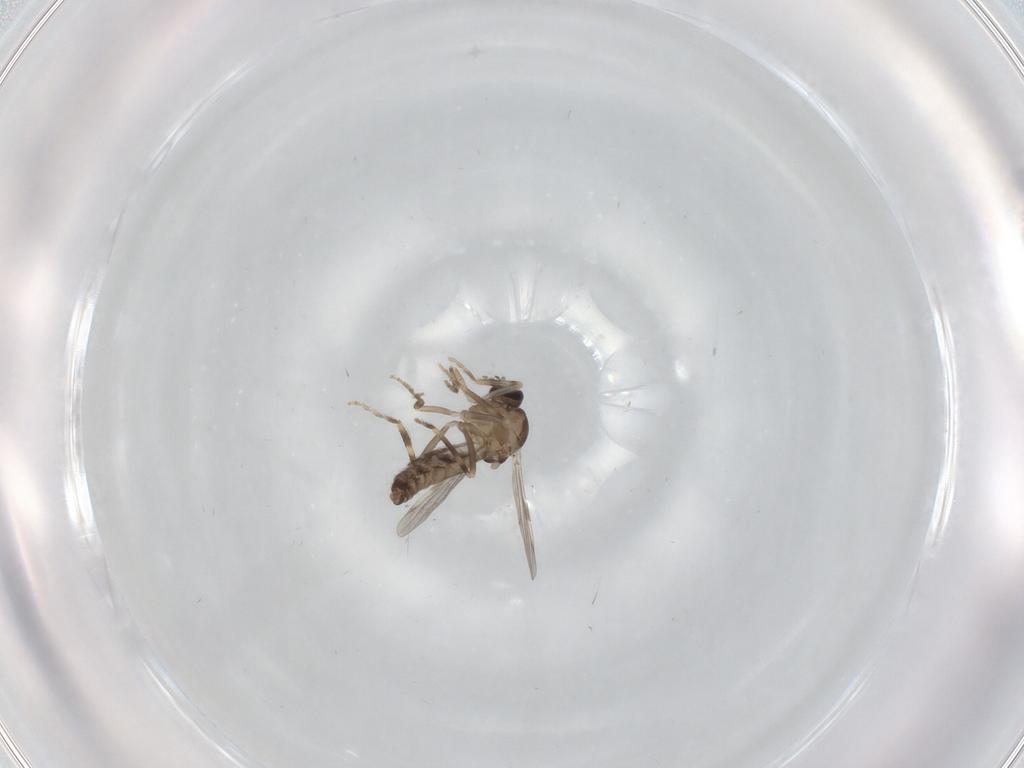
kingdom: Animalia
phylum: Arthropoda
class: Insecta
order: Diptera
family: Ceratopogonidae
